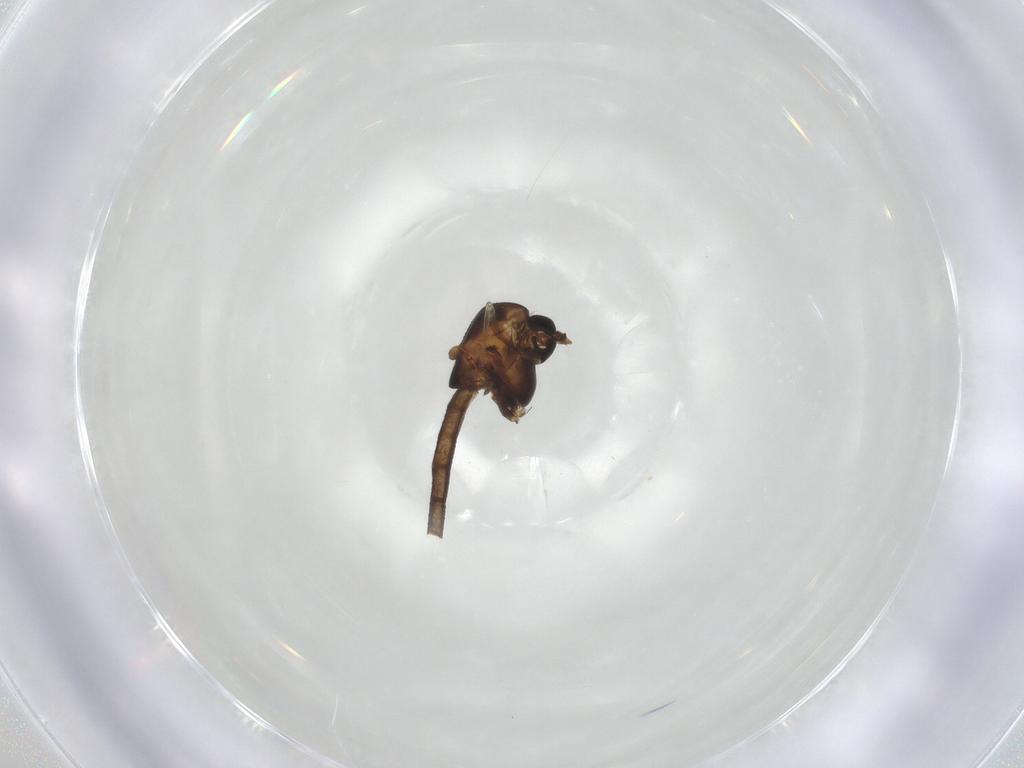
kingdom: Animalia
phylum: Arthropoda
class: Insecta
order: Diptera
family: Chironomidae
